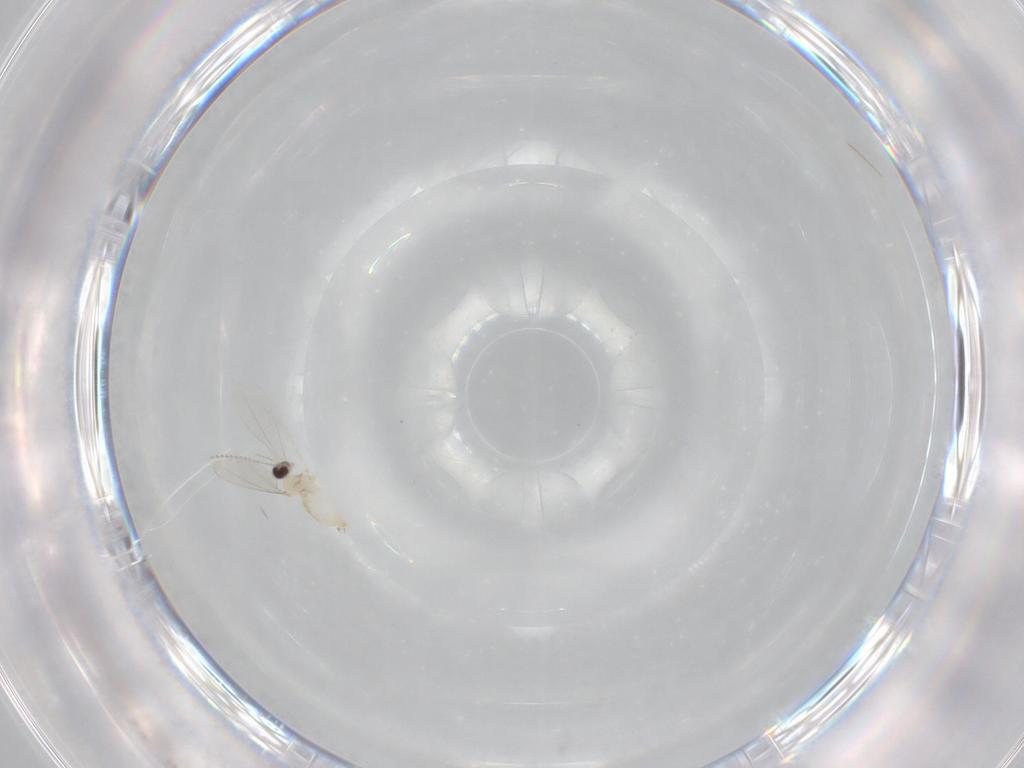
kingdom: Animalia
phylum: Arthropoda
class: Insecta
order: Diptera
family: Cecidomyiidae
